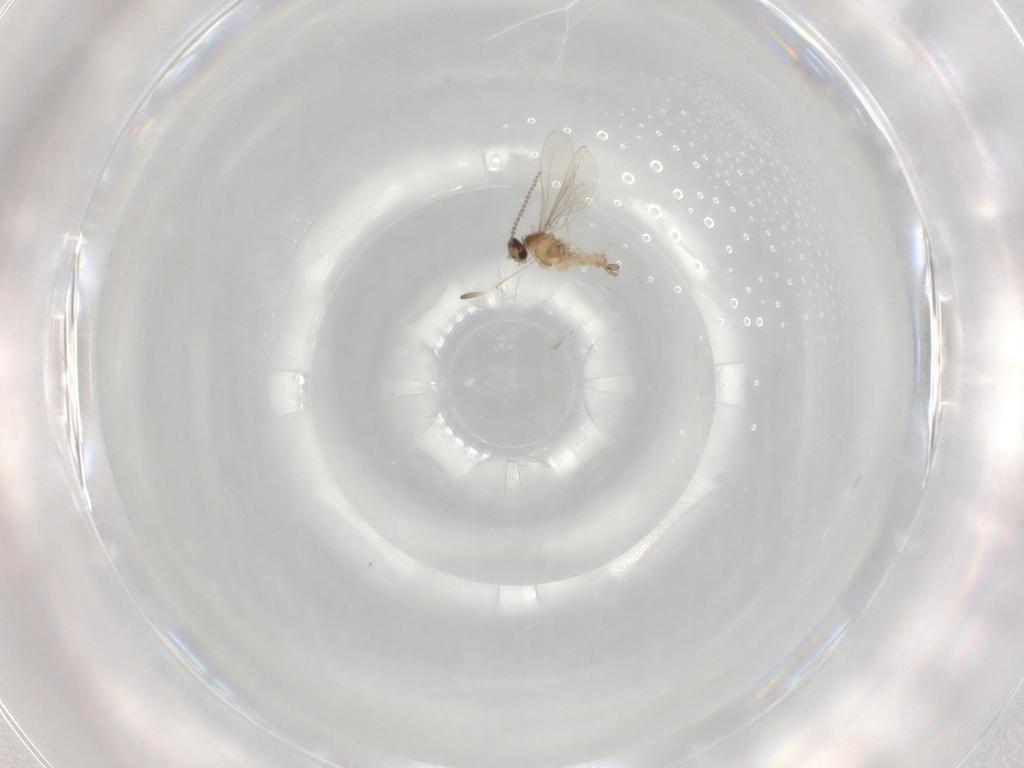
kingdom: Animalia
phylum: Arthropoda
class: Insecta
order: Diptera
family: Cecidomyiidae
